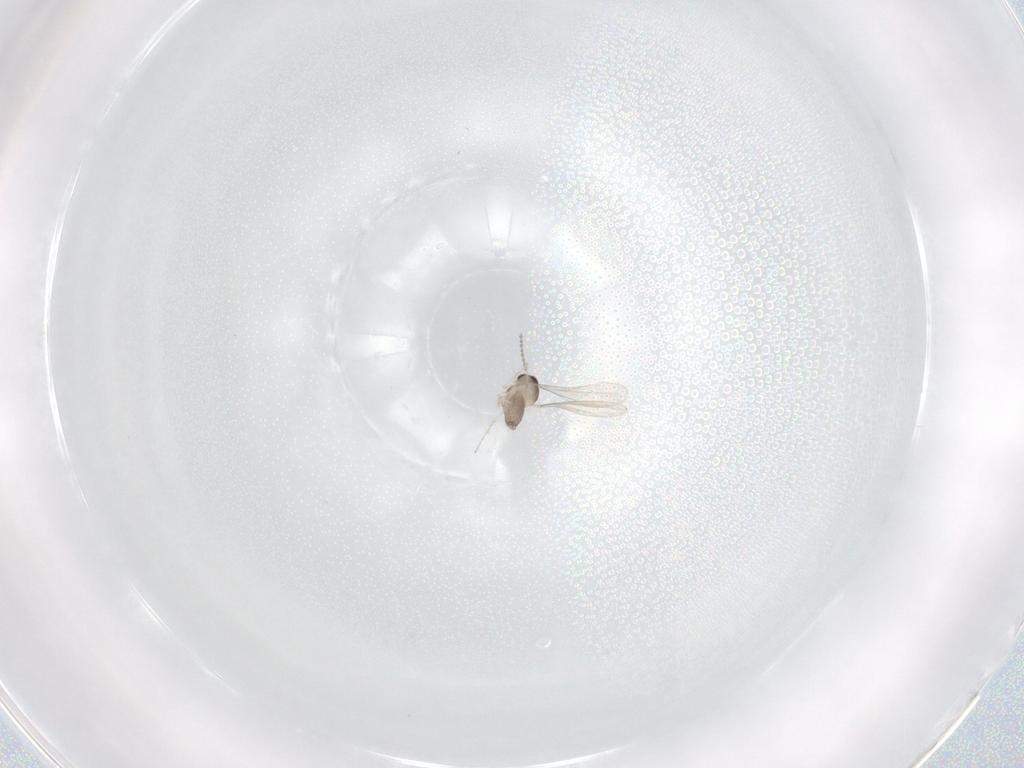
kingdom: Animalia
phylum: Arthropoda
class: Insecta
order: Diptera
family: Cecidomyiidae
